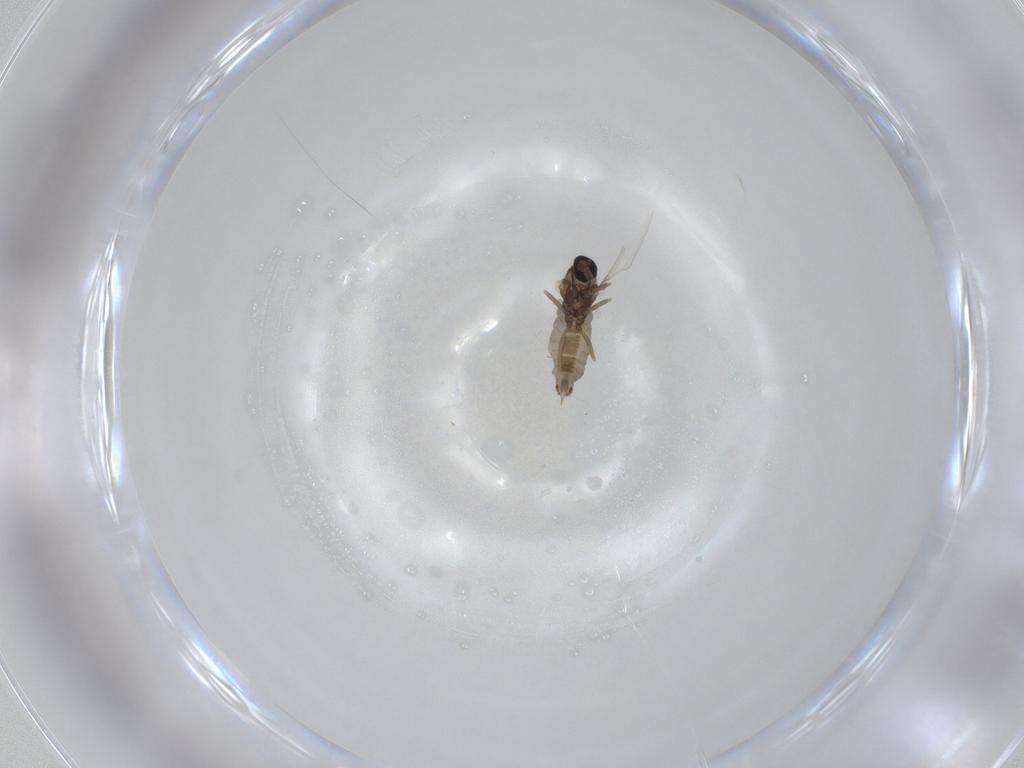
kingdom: Animalia
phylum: Arthropoda
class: Insecta
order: Diptera
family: Cecidomyiidae
